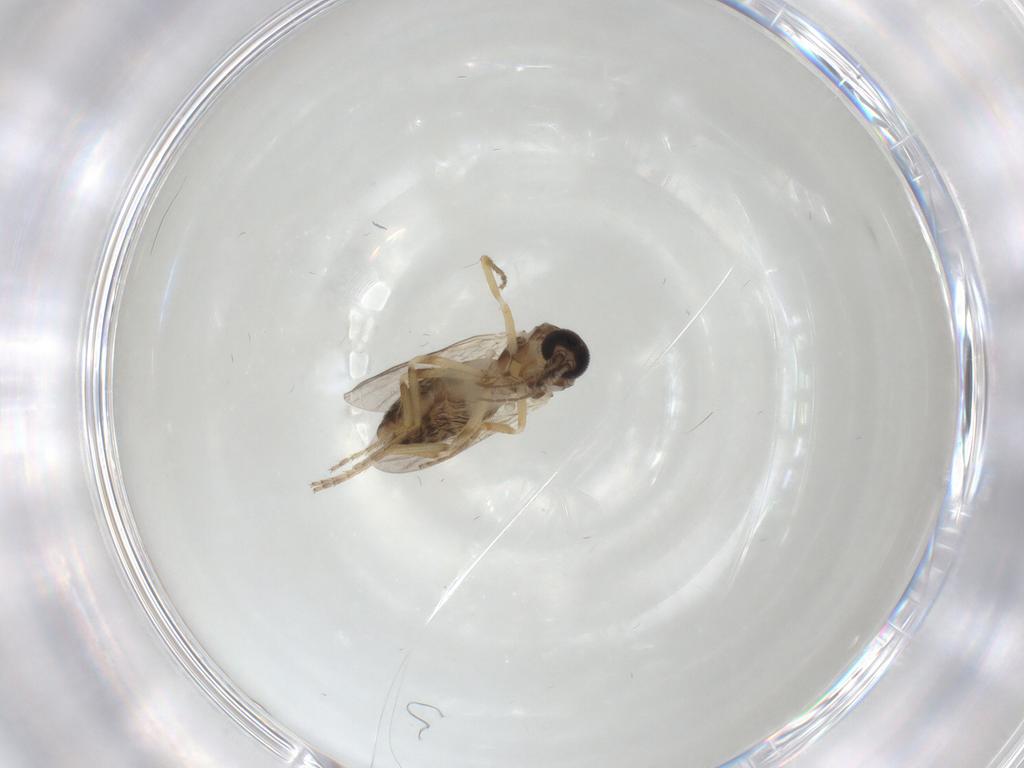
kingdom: Animalia
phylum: Arthropoda
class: Insecta
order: Diptera
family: Ceratopogonidae
